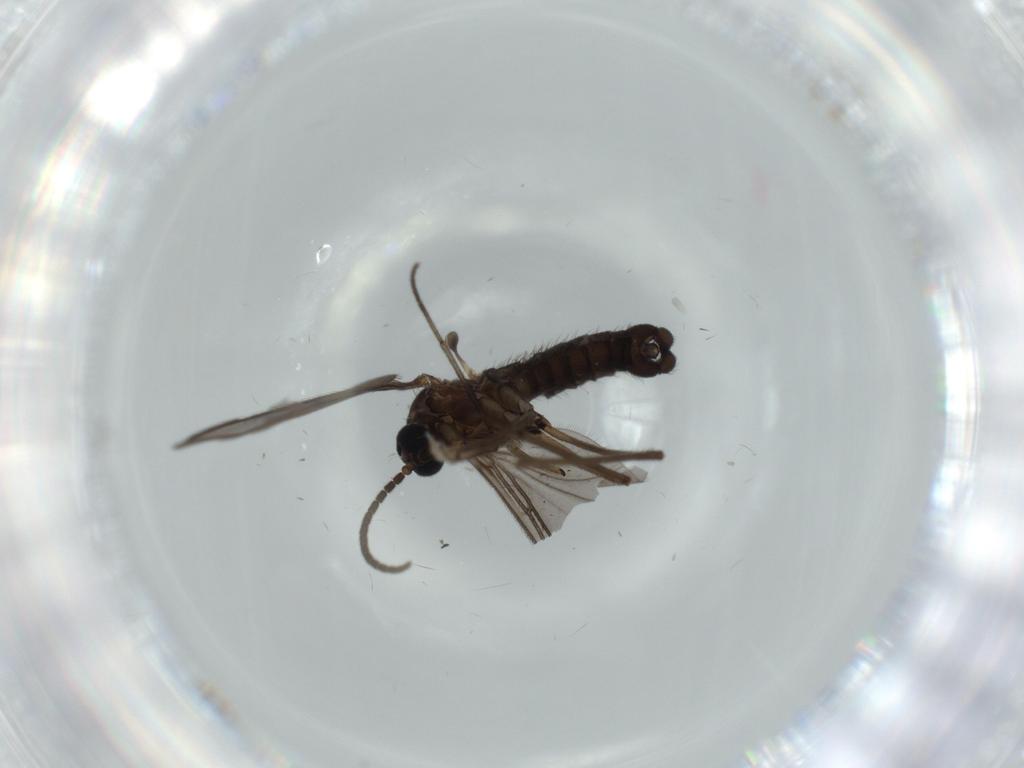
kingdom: Animalia
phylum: Arthropoda
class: Insecta
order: Diptera
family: Sciaridae
